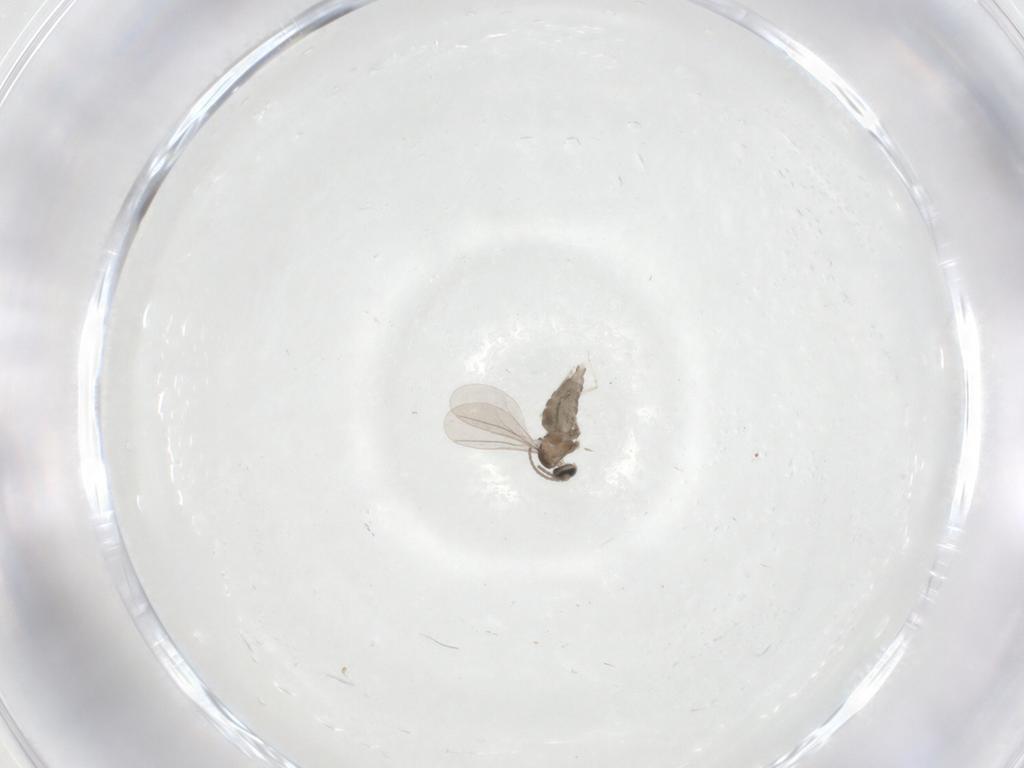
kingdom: Animalia
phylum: Arthropoda
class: Insecta
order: Diptera
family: Cecidomyiidae
